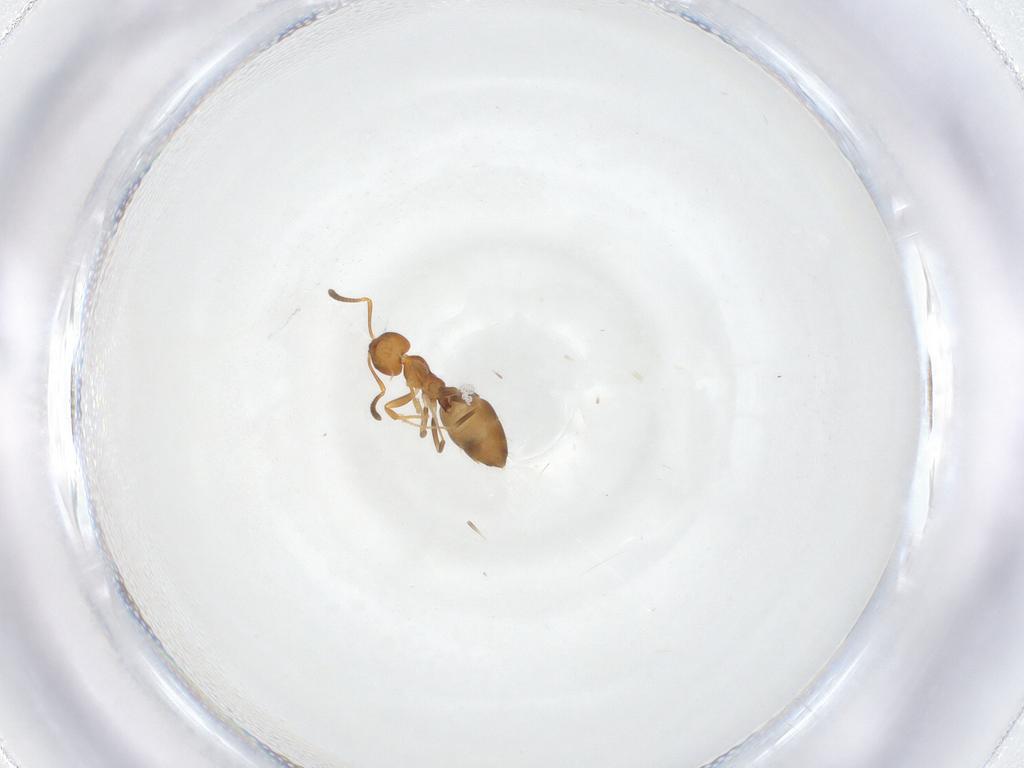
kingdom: Animalia
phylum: Arthropoda
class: Insecta
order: Hymenoptera
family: Formicidae
